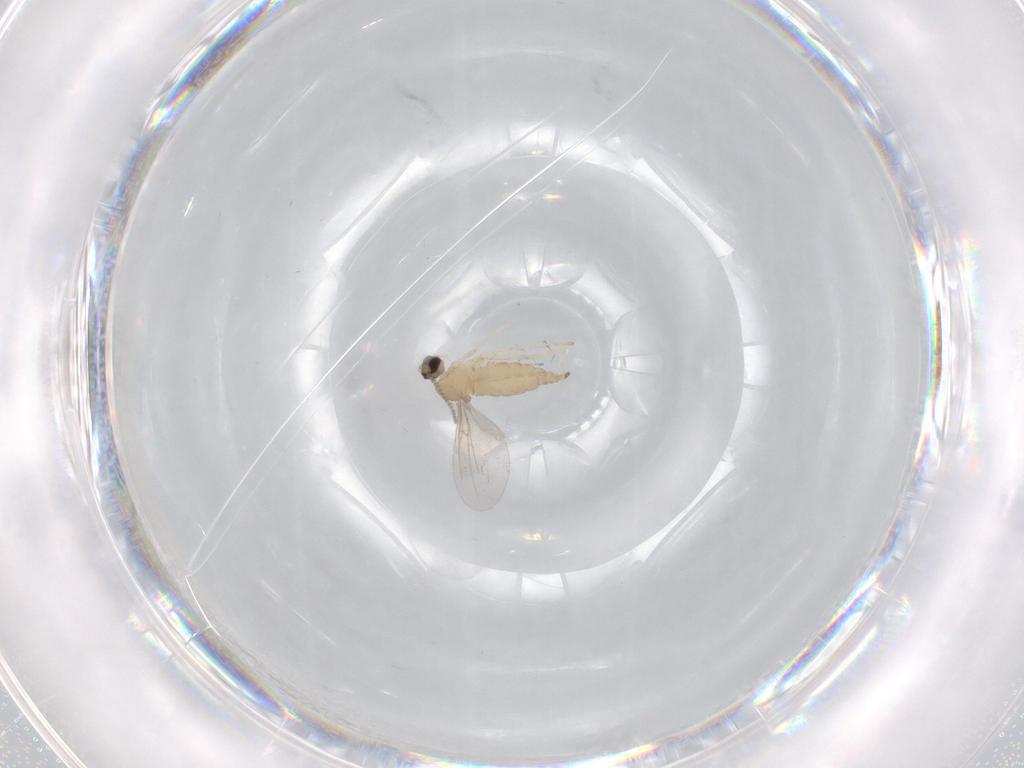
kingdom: Animalia
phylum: Arthropoda
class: Insecta
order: Diptera
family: Cecidomyiidae
